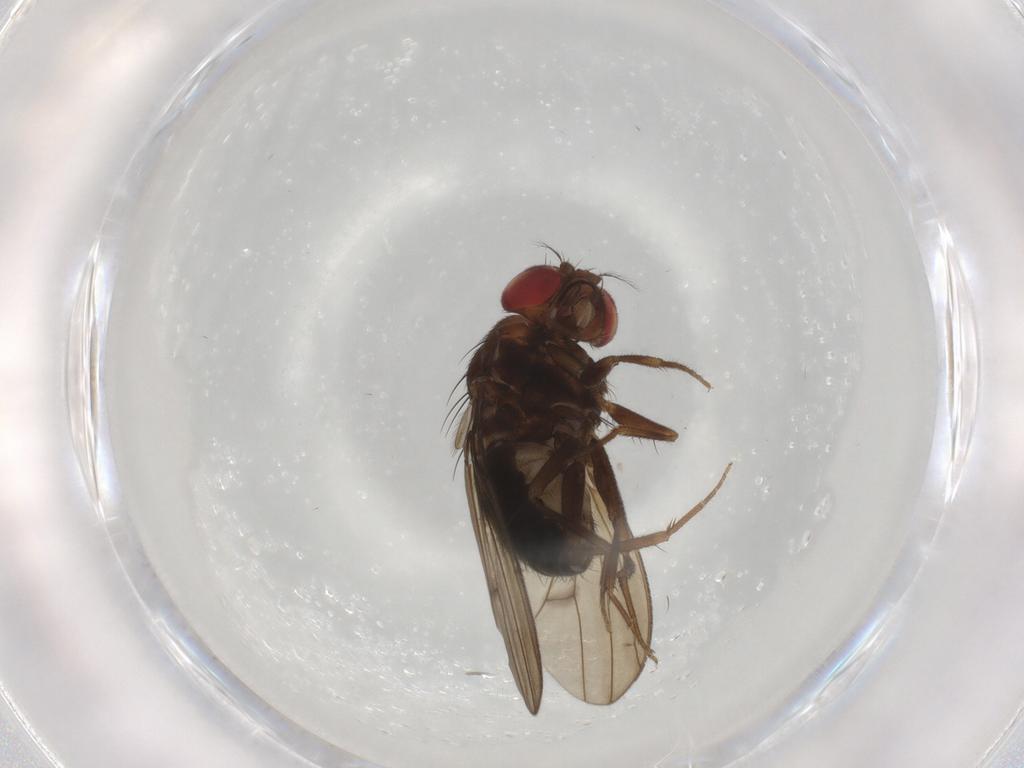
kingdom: Animalia
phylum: Arthropoda
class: Insecta
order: Diptera
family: Drosophilidae
